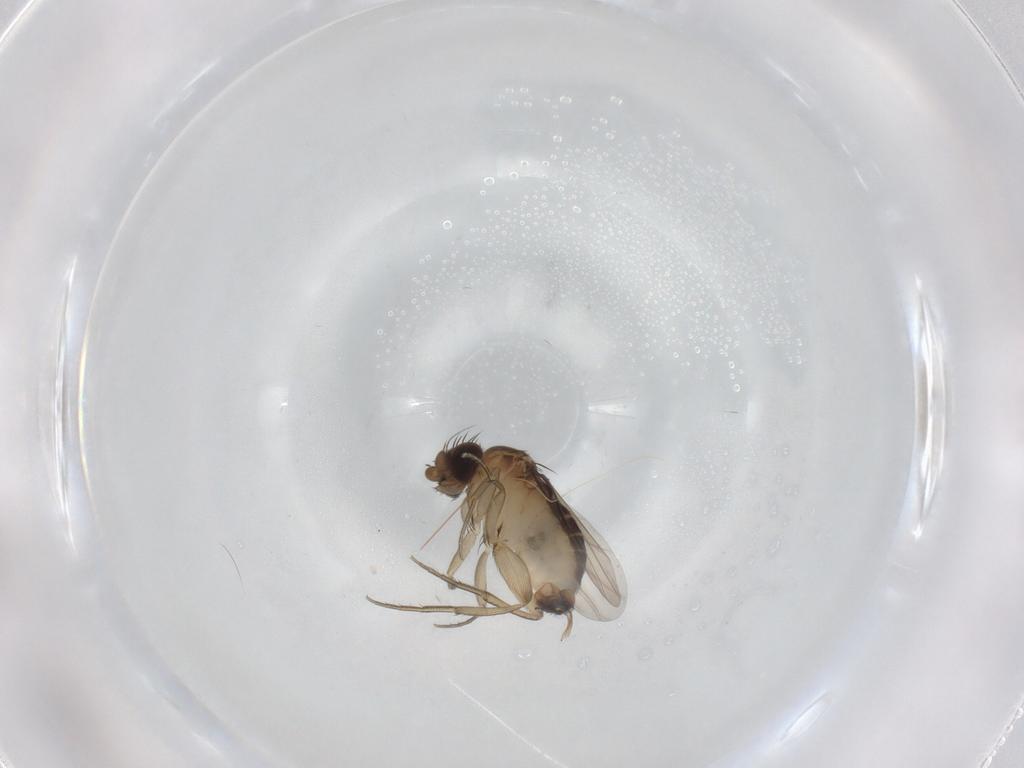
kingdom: Animalia
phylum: Arthropoda
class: Insecta
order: Diptera
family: Phoridae
